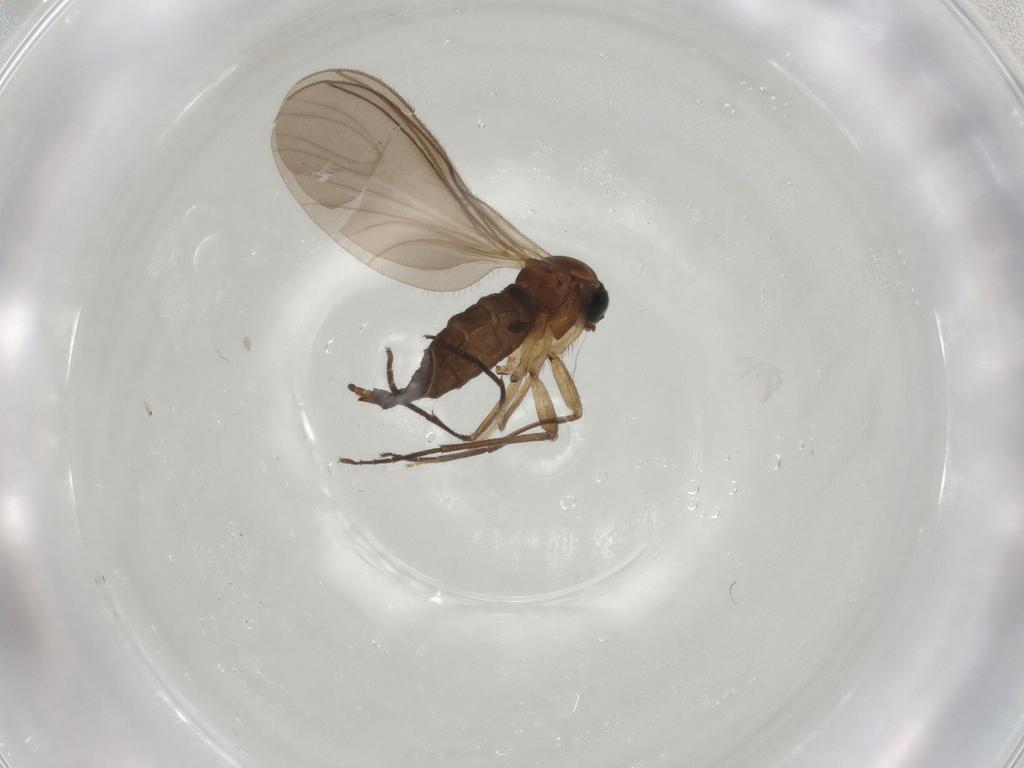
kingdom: Animalia
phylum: Arthropoda
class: Insecta
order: Diptera
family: Sciaridae
